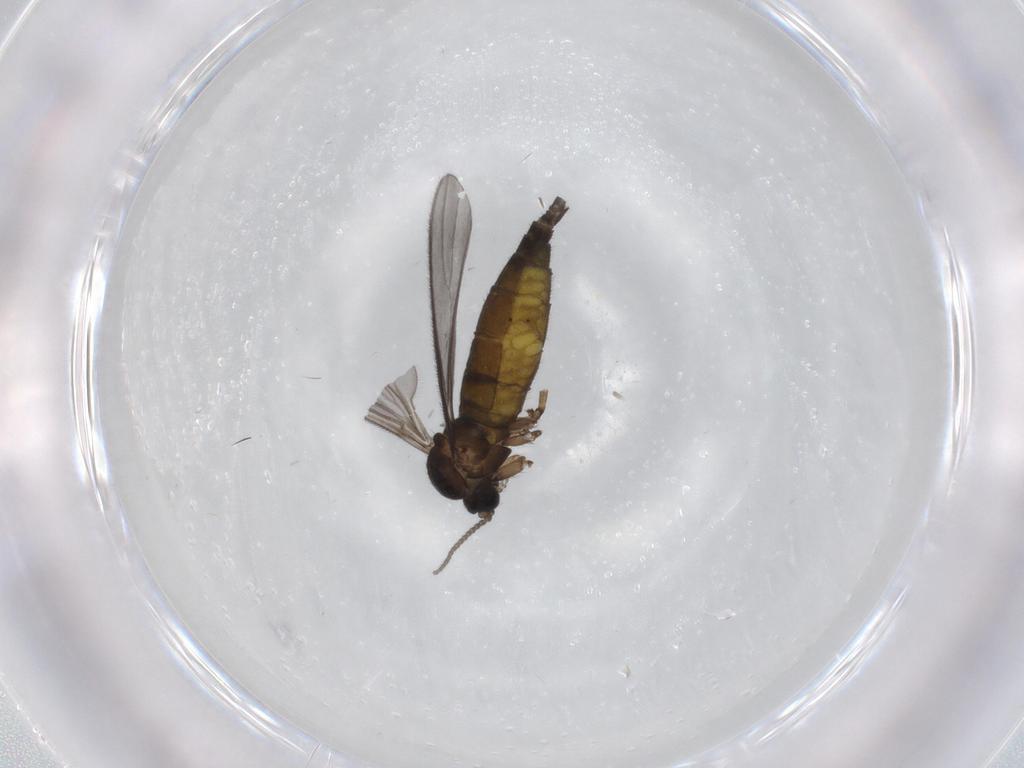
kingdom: Animalia
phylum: Arthropoda
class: Insecta
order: Diptera
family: Sciaridae
